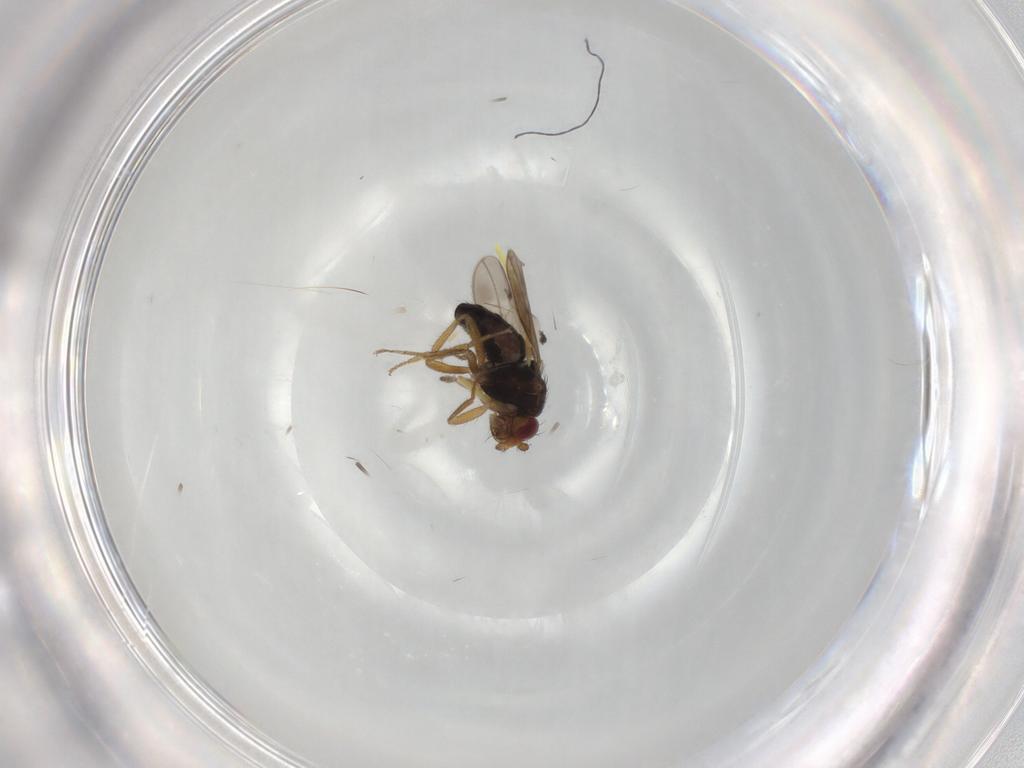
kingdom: Animalia
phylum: Arthropoda
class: Insecta
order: Diptera
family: Sphaeroceridae
